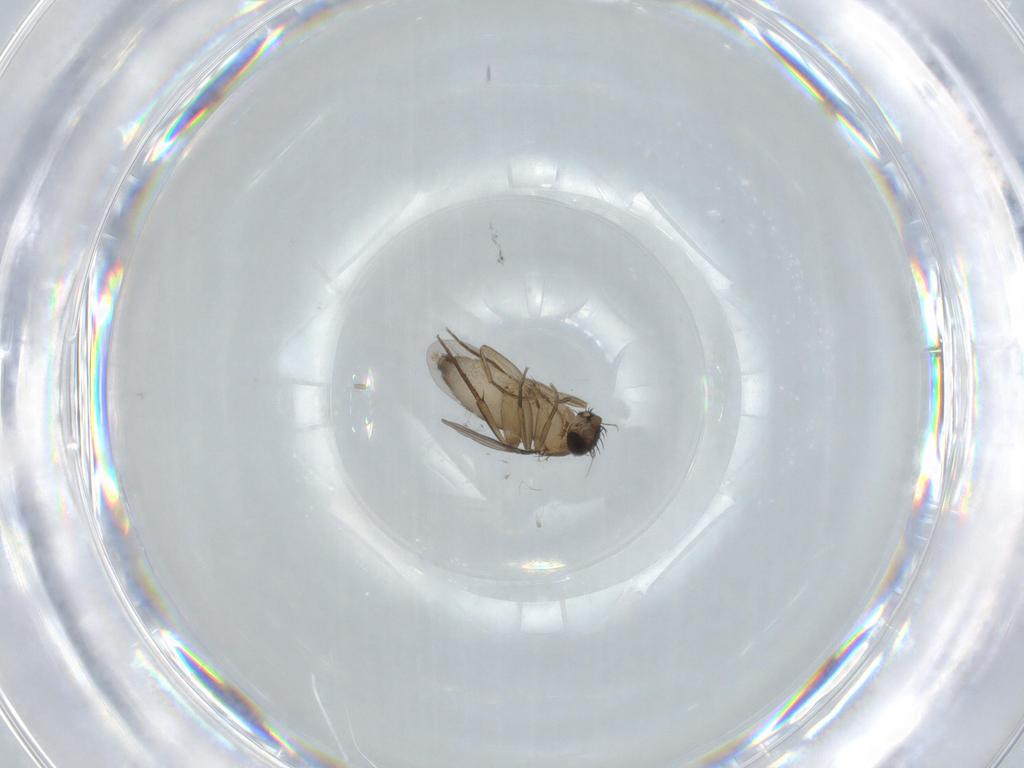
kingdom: Animalia
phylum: Arthropoda
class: Insecta
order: Diptera
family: Phoridae
